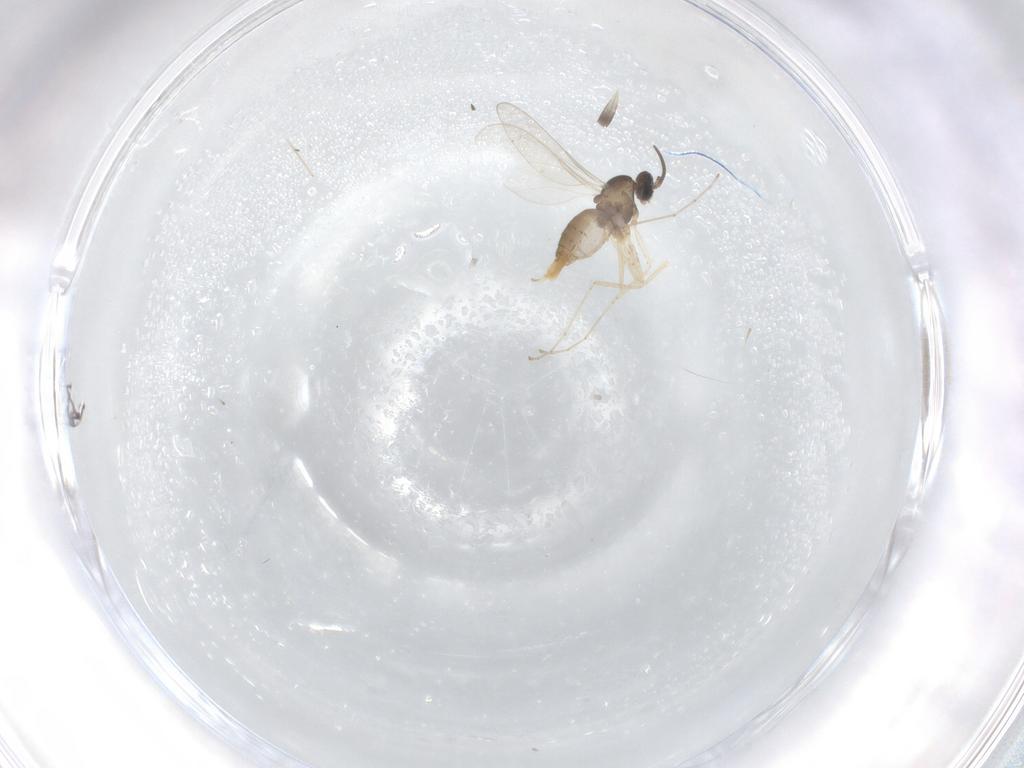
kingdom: Animalia
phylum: Arthropoda
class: Insecta
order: Diptera
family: Cecidomyiidae
